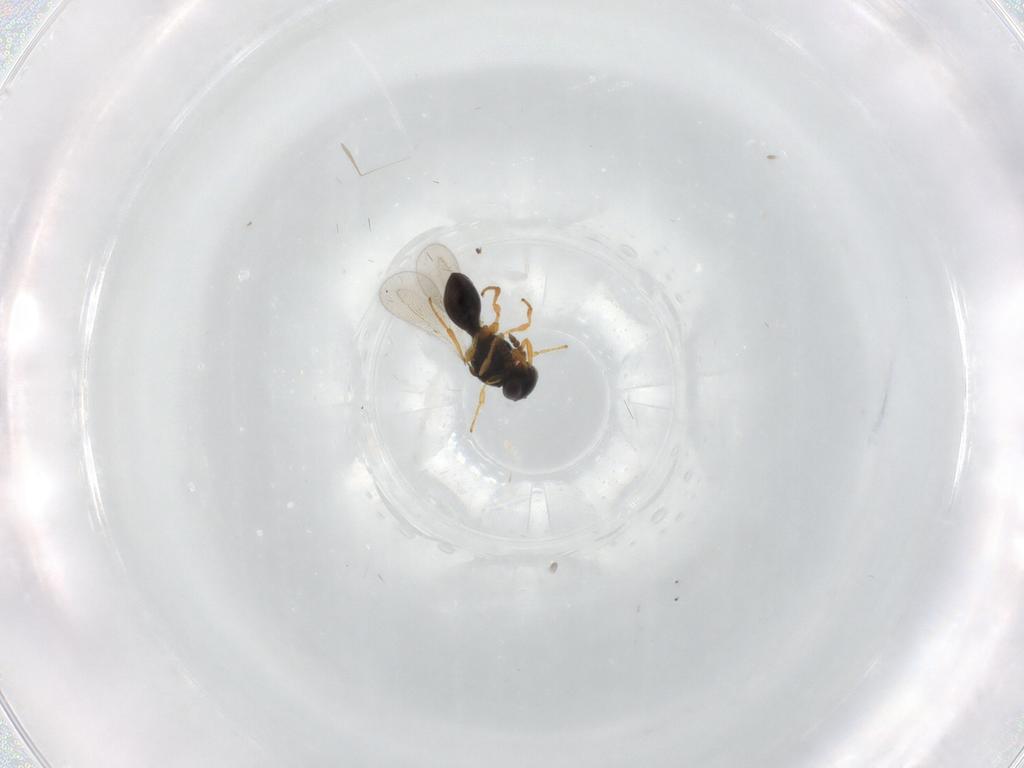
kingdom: Animalia
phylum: Arthropoda
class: Insecta
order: Hymenoptera
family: Platygastridae
